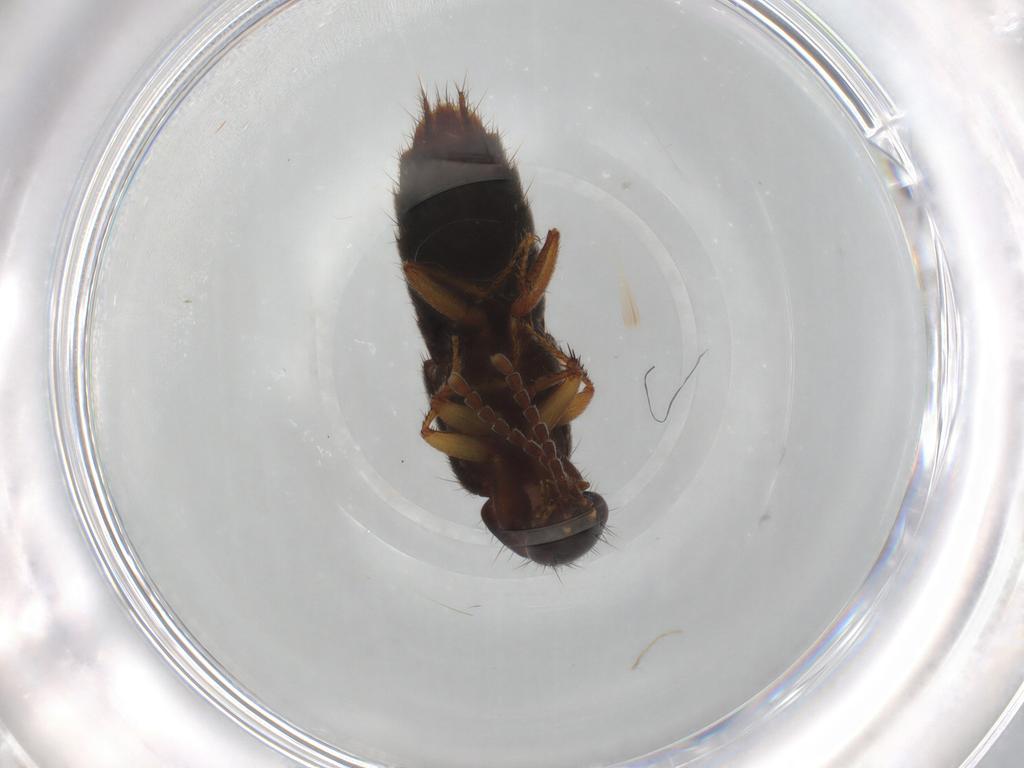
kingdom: Animalia
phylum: Arthropoda
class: Insecta
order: Coleoptera
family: Staphylinidae
